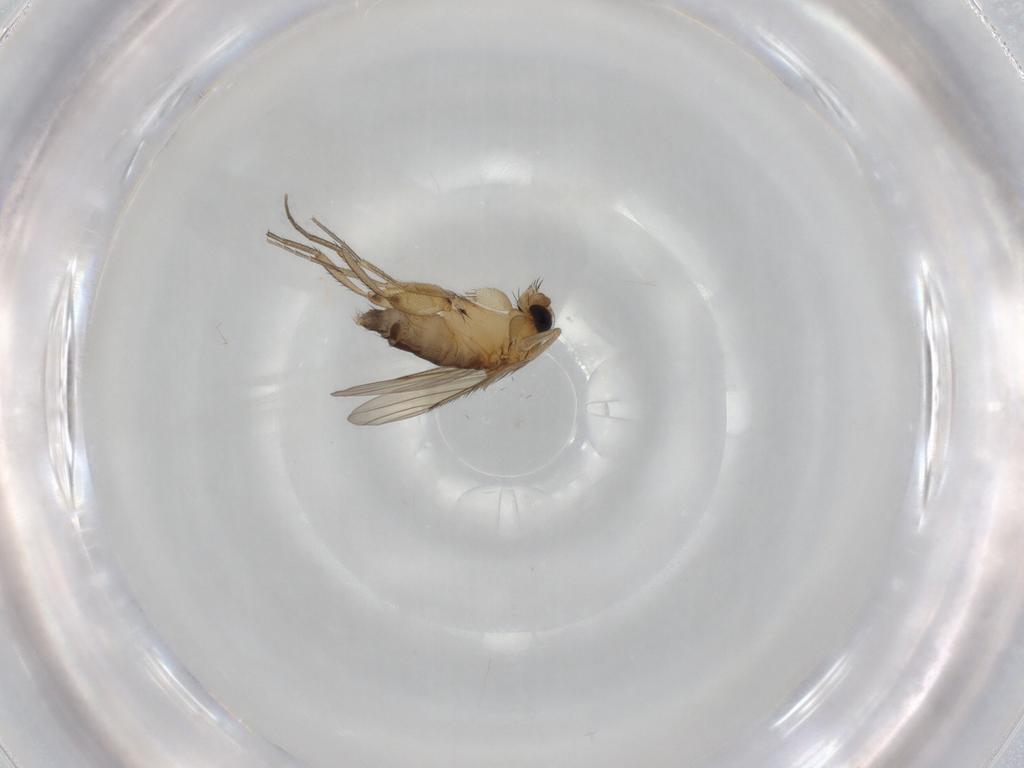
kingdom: Animalia
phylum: Arthropoda
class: Insecta
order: Diptera
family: Phoridae
